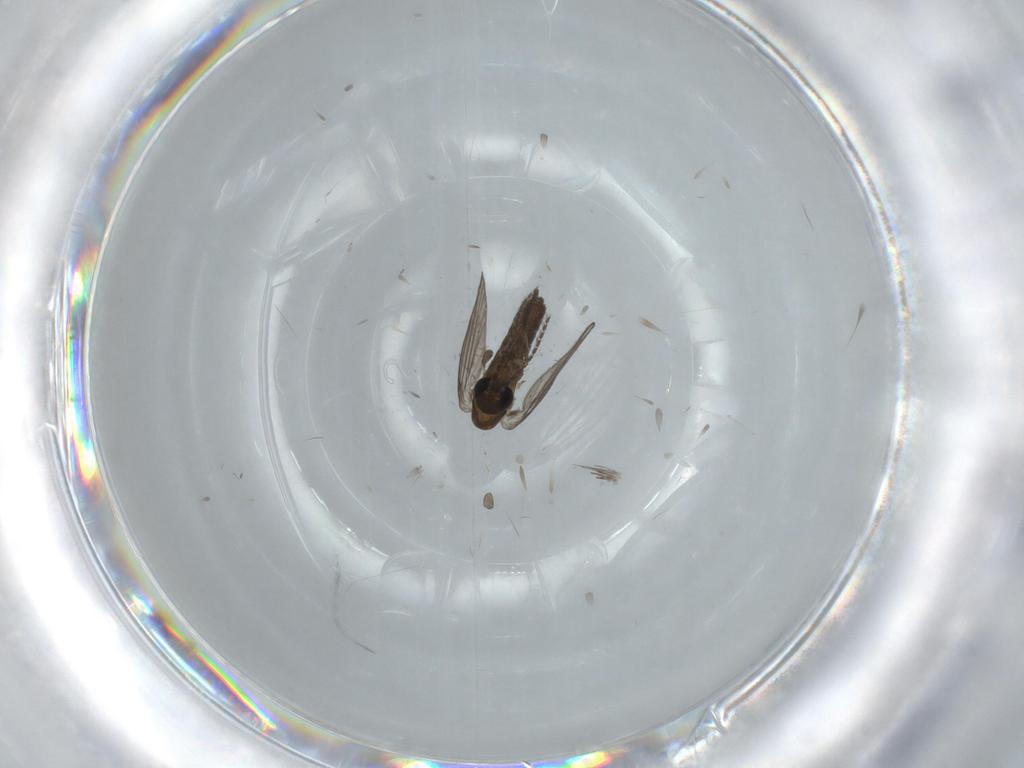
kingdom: Animalia
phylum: Arthropoda
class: Insecta
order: Diptera
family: Psychodidae
